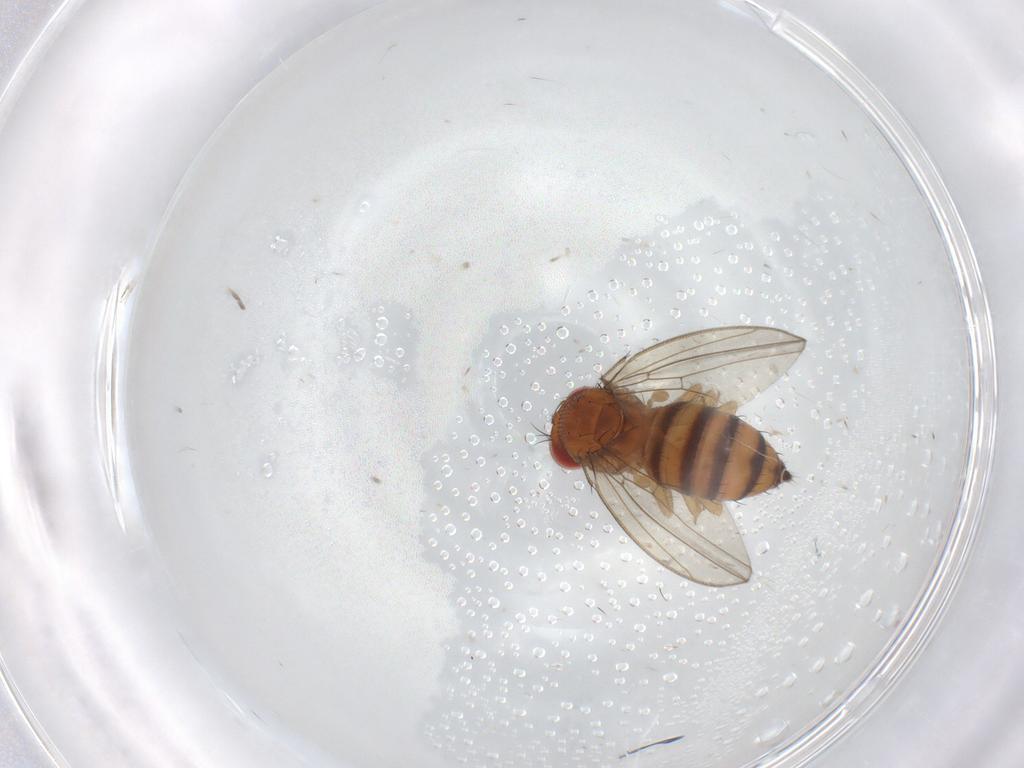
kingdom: Animalia
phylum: Arthropoda
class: Insecta
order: Diptera
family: Drosophilidae
